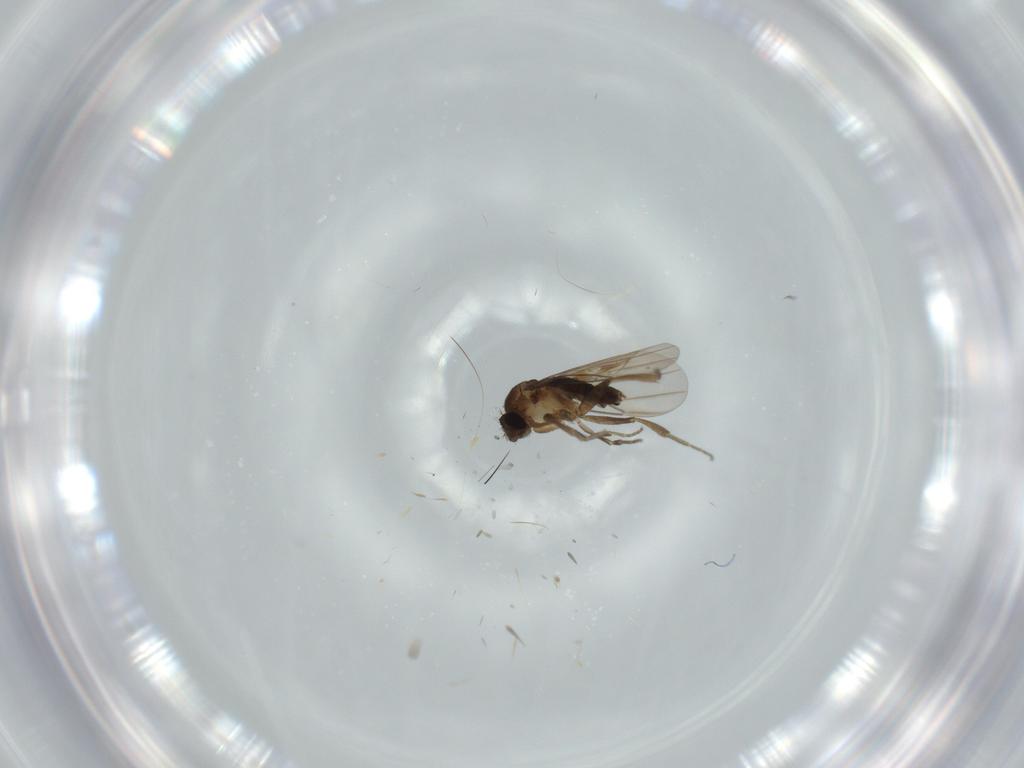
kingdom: Animalia
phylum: Arthropoda
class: Insecta
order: Diptera
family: Phoridae
